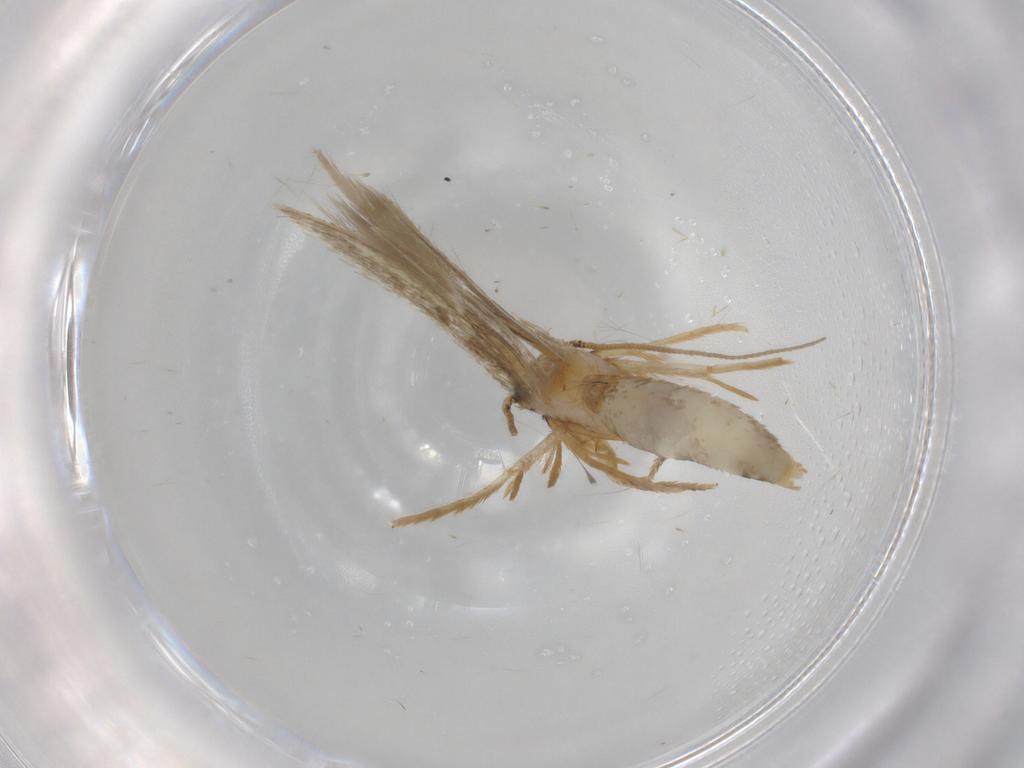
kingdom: Animalia
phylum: Arthropoda
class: Insecta
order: Lepidoptera
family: Tineidae
